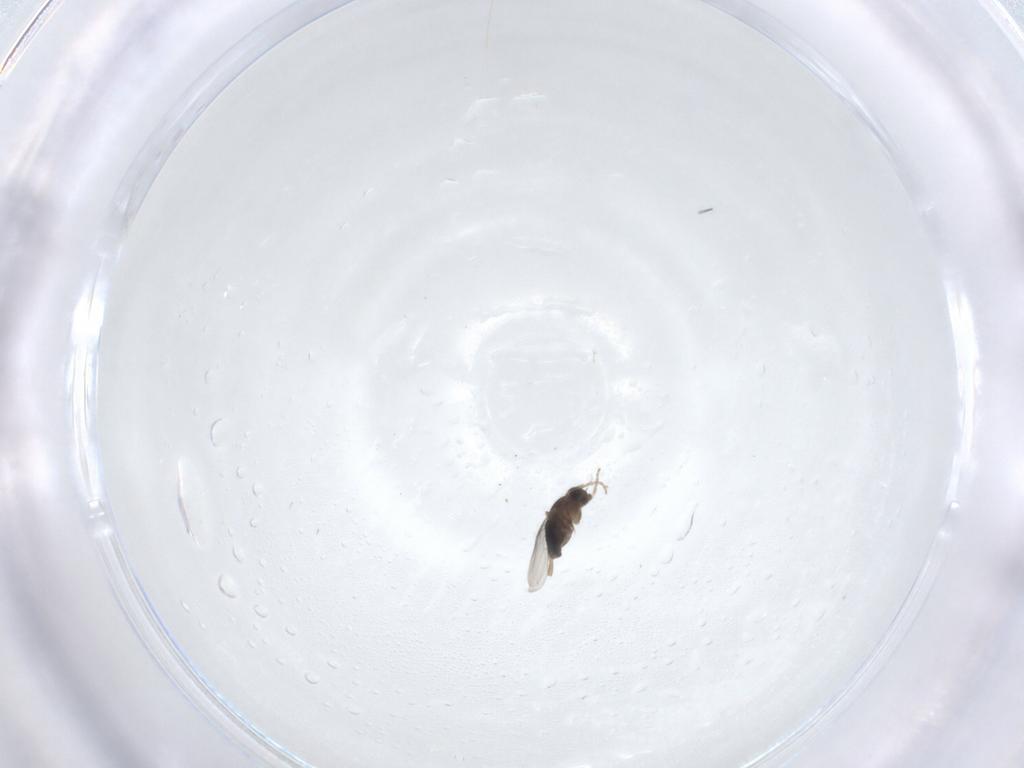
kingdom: Animalia
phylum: Arthropoda
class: Insecta
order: Diptera
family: Phoridae
